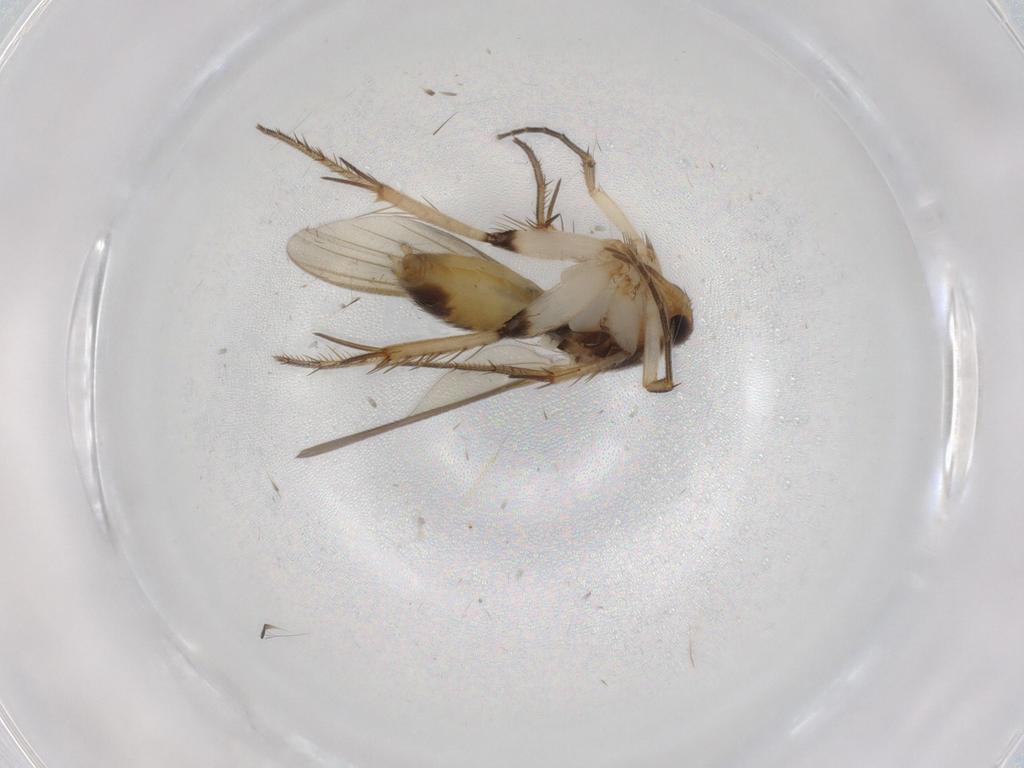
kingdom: Animalia
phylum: Arthropoda
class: Insecta
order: Diptera
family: Mycetophilidae
